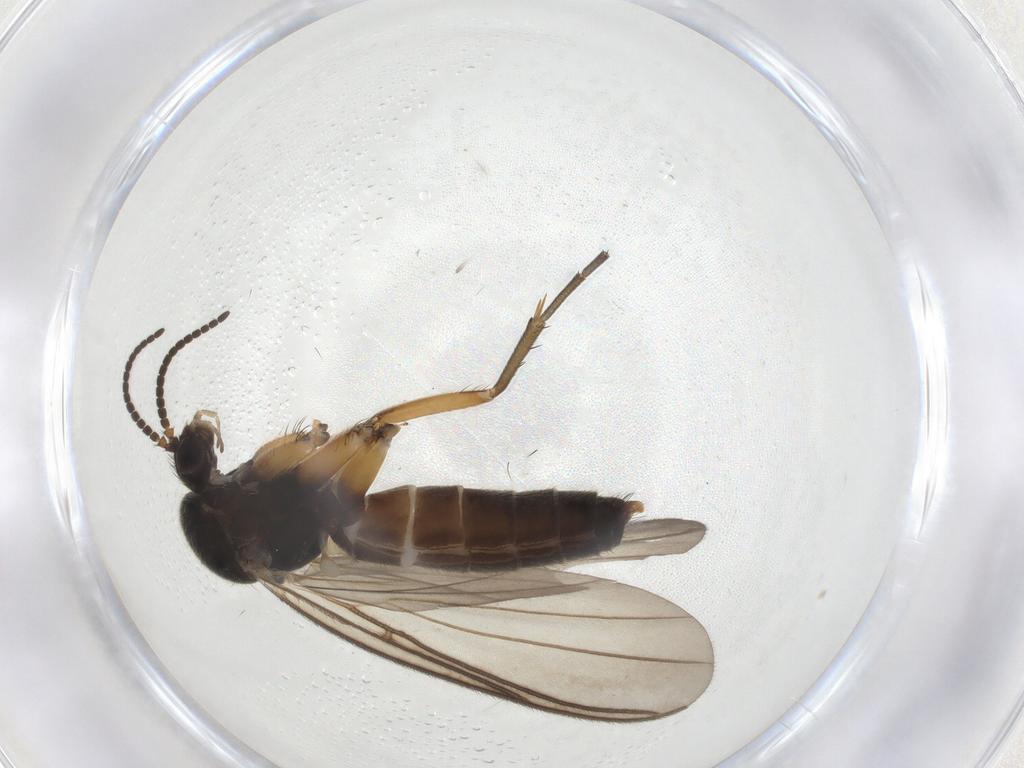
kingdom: Animalia
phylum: Arthropoda
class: Insecta
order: Diptera
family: Mycetophilidae
